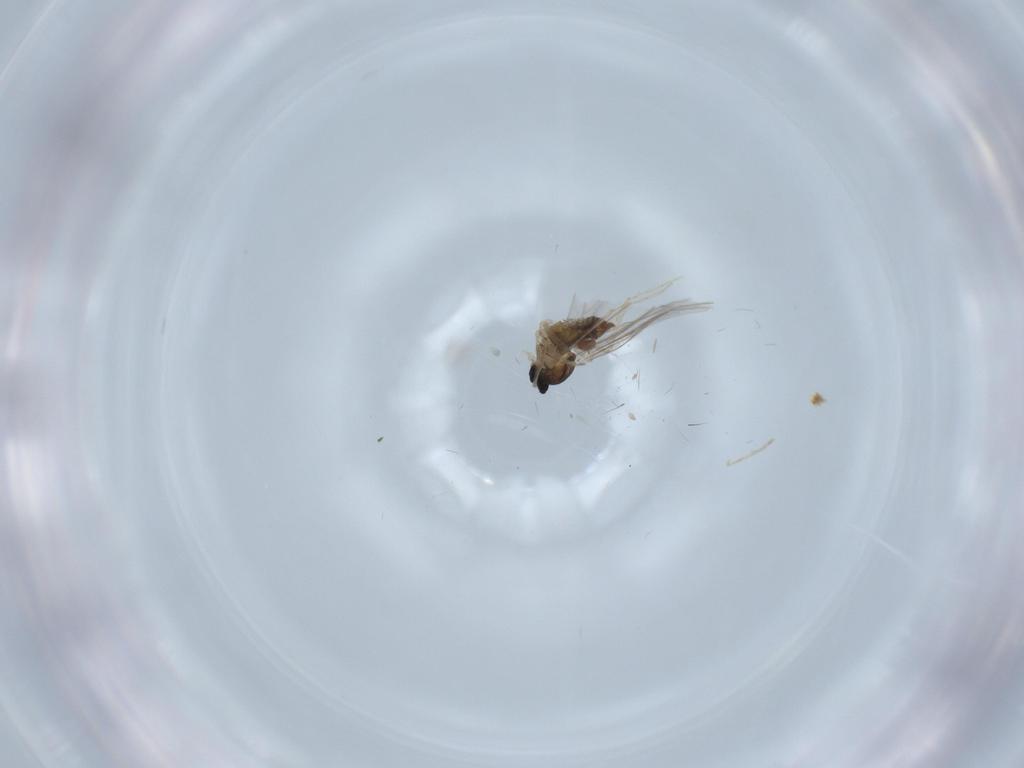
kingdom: Animalia
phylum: Arthropoda
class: Insecta
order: Diptera
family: Cecidomyiidae
